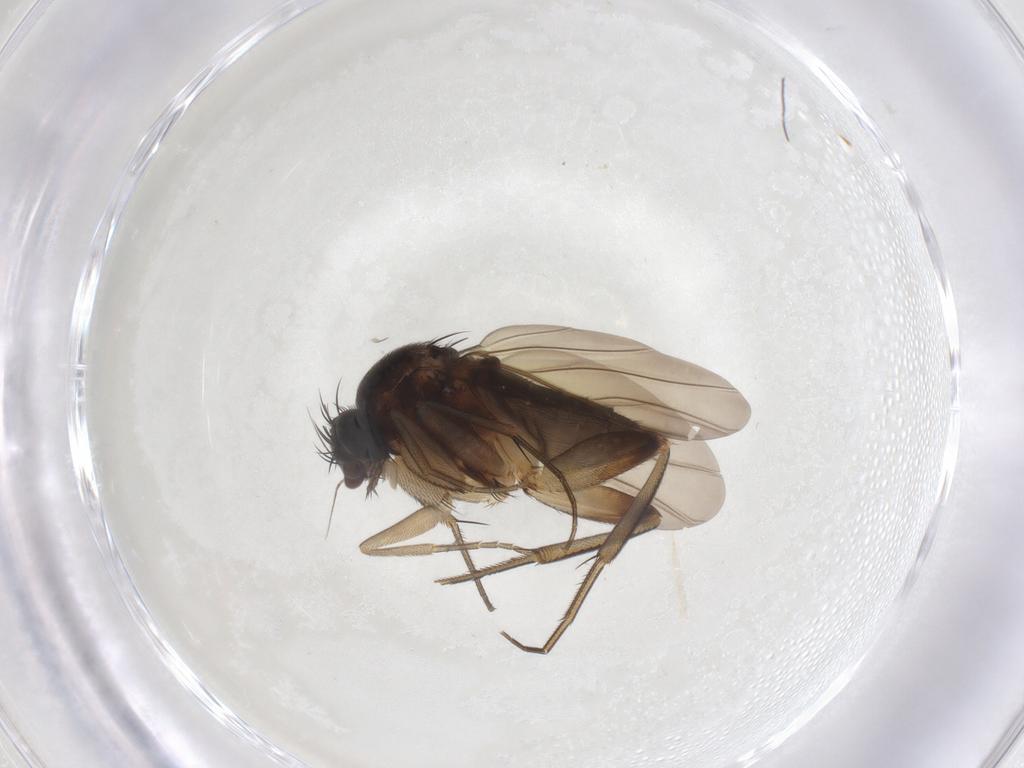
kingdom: Animalia
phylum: Arthropoda
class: Insecta
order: Diptera
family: Phoridae
